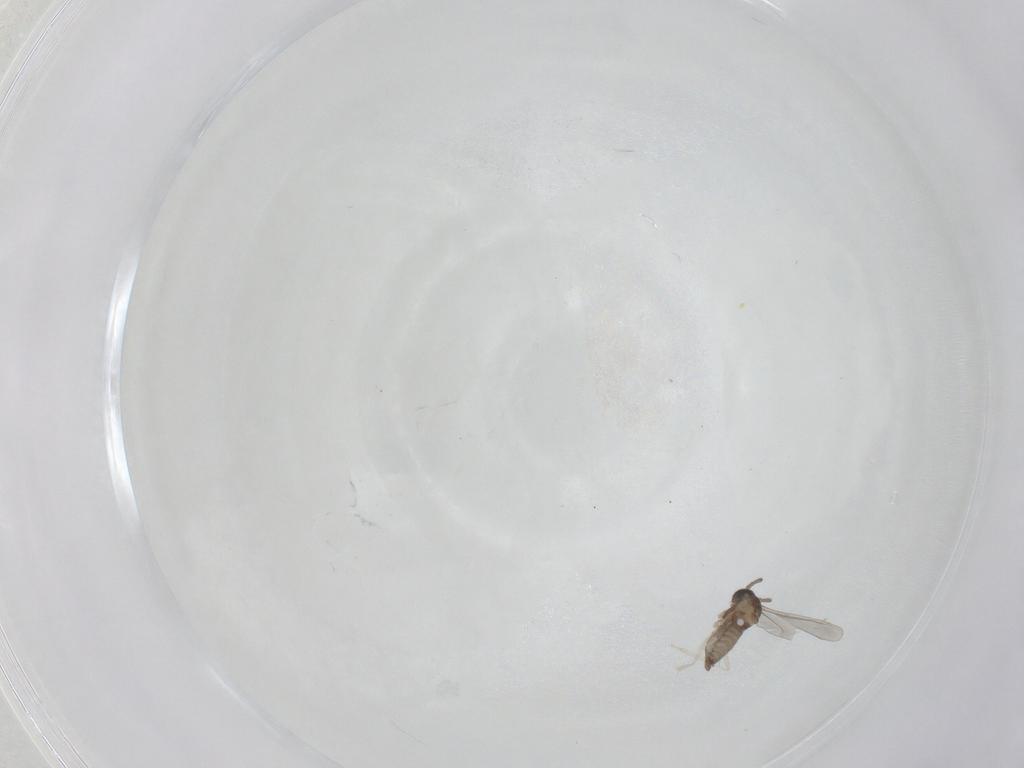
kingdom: Animalia
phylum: Arthropoda
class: Insecta
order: Diptera
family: Cecidomyiidae
